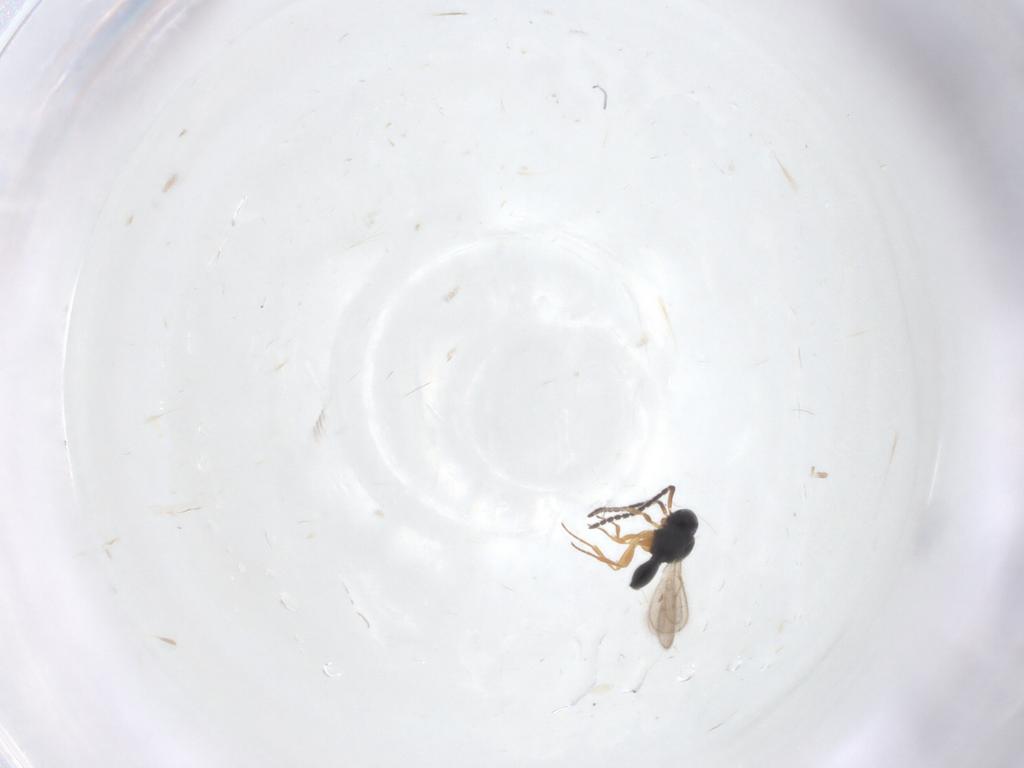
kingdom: Animalia
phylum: Arthropoda
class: Insecta
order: Hymenoptera
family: Scelionidae
